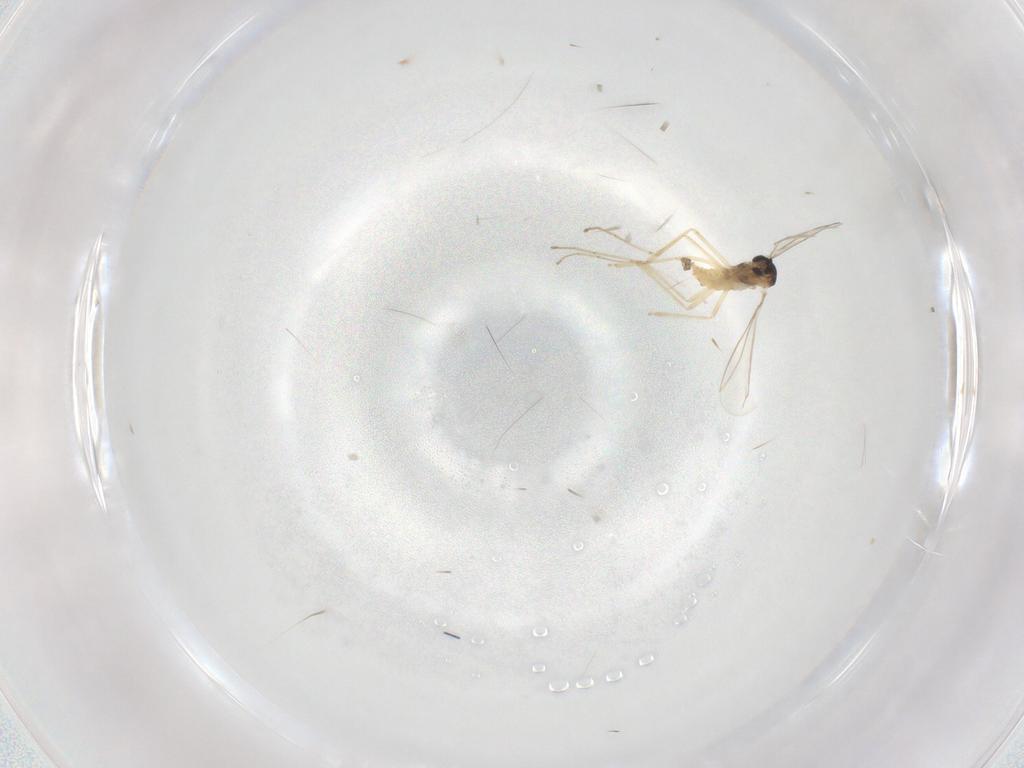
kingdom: Animalia
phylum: Arthropoda
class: Insecta
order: Diptera
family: Cecidomyiidae
